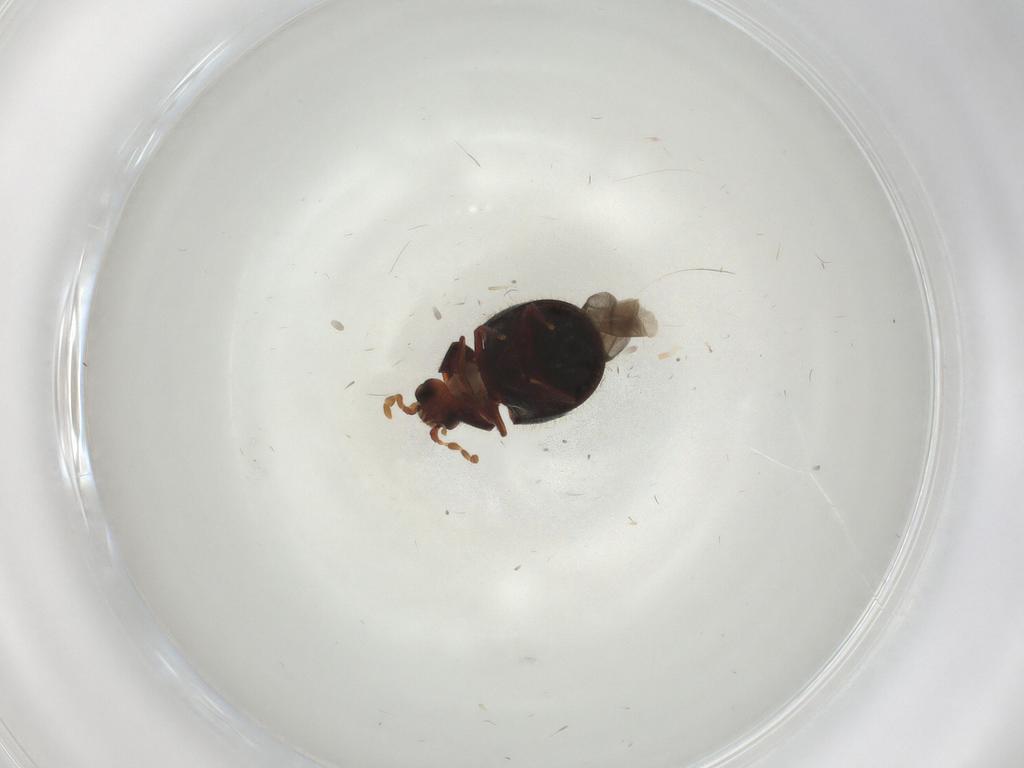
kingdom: Animalia
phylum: Arthropoda
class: Insecta
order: Coleoptera
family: Ptinidae
